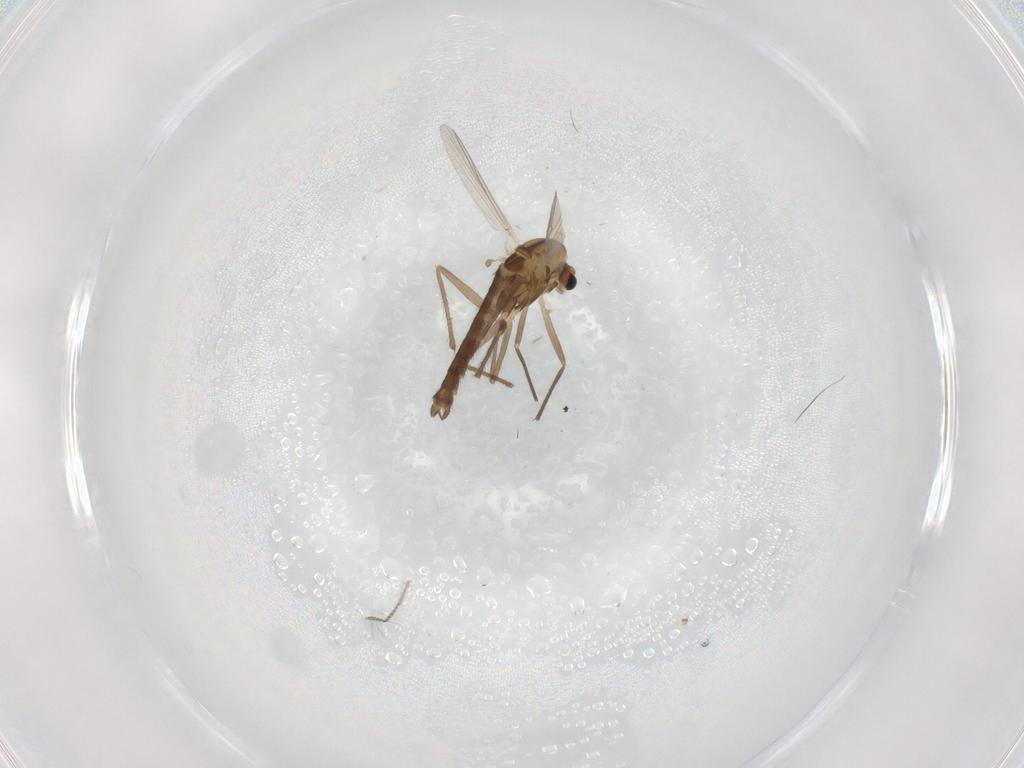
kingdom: Animalia
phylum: Arthropoda
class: Insecta
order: Diptera
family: Chironomidae
